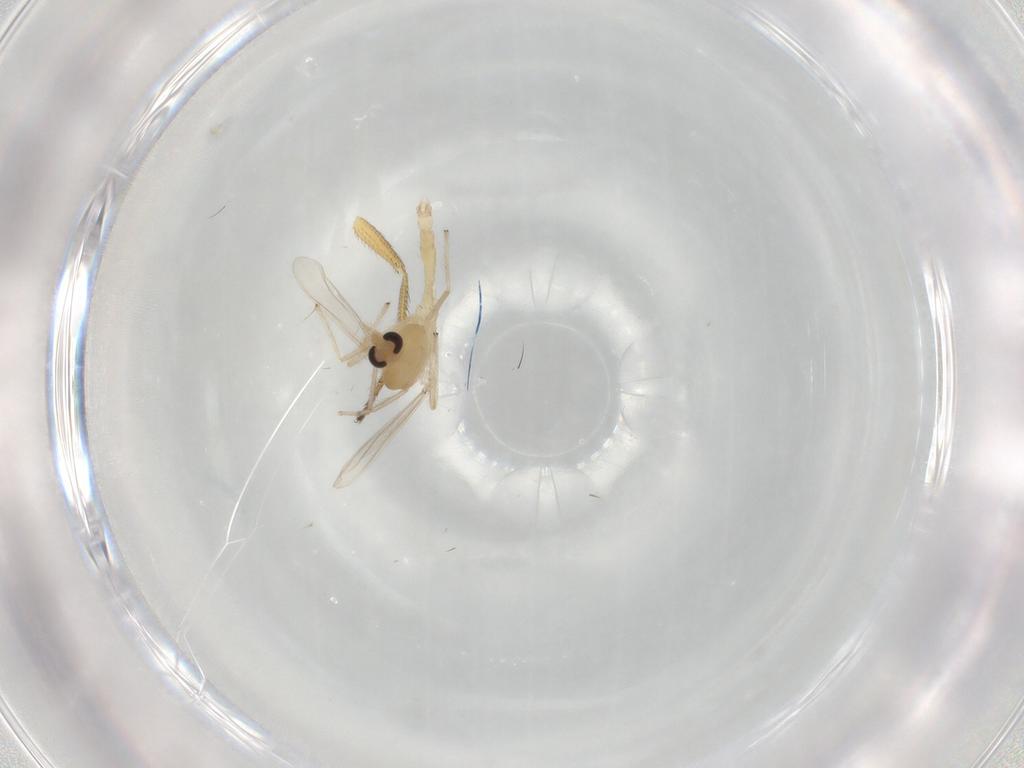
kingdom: Animalia
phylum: Arthropoda
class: Insecta
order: Diptera
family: Chironomidae
